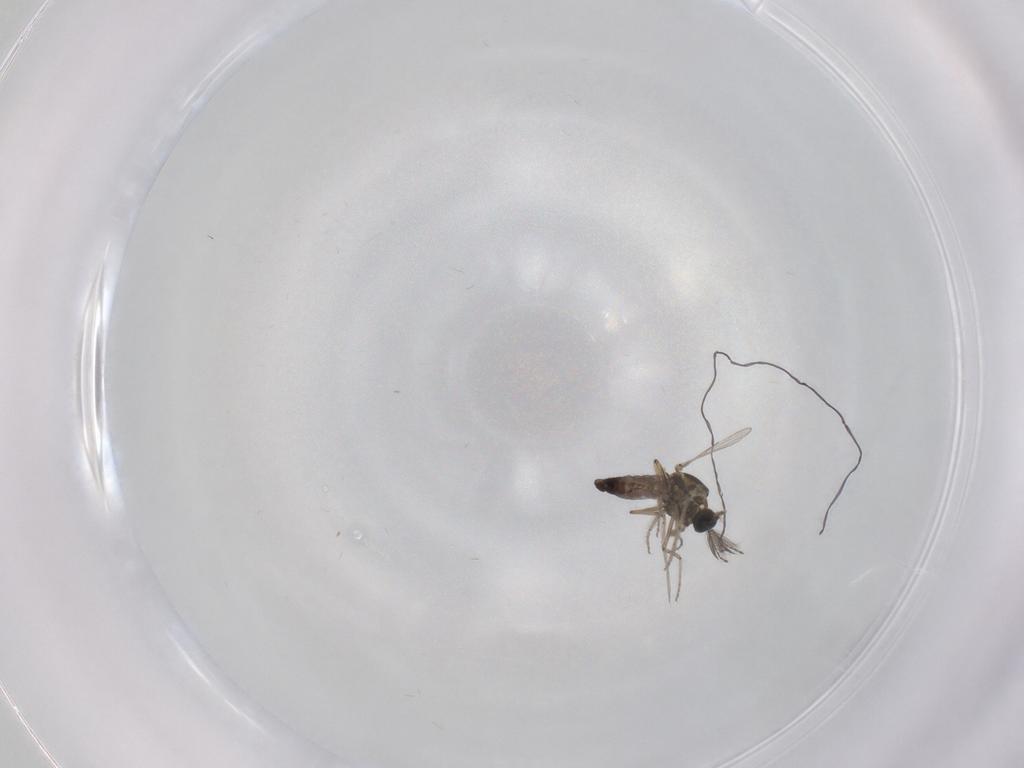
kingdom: Animalia
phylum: Arthropoda
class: Insecta
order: Diptera
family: Ceratopogonidae
